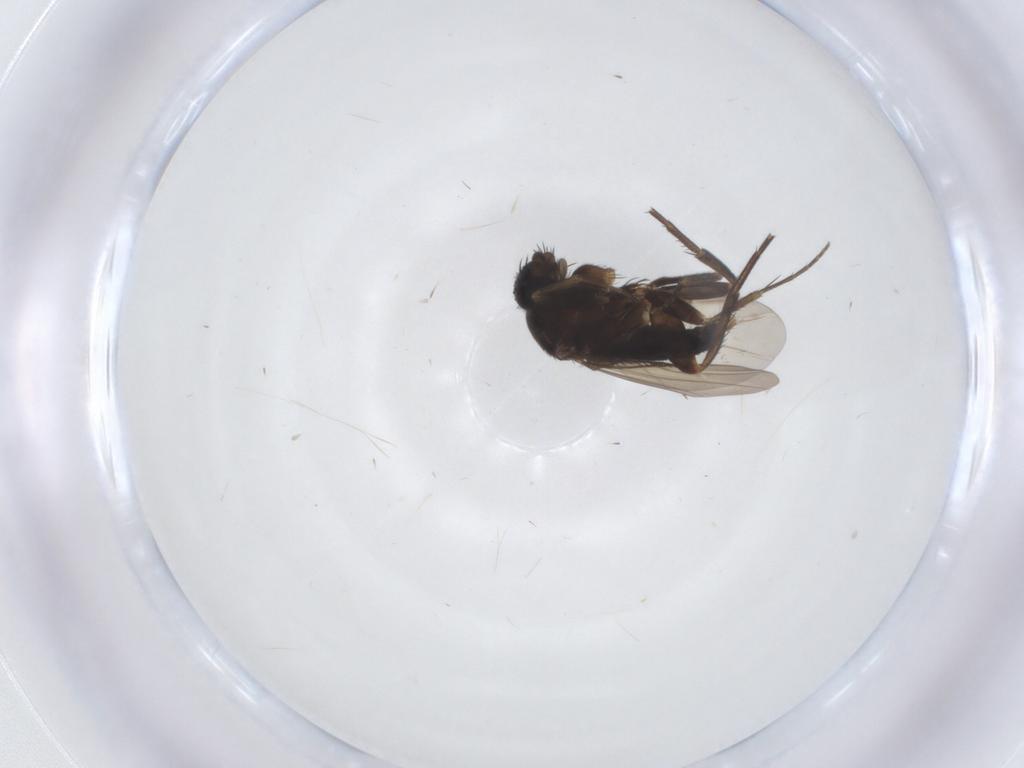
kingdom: Animalia
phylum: Arthropoda
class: Insecta
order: Diptera
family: Phoridae
